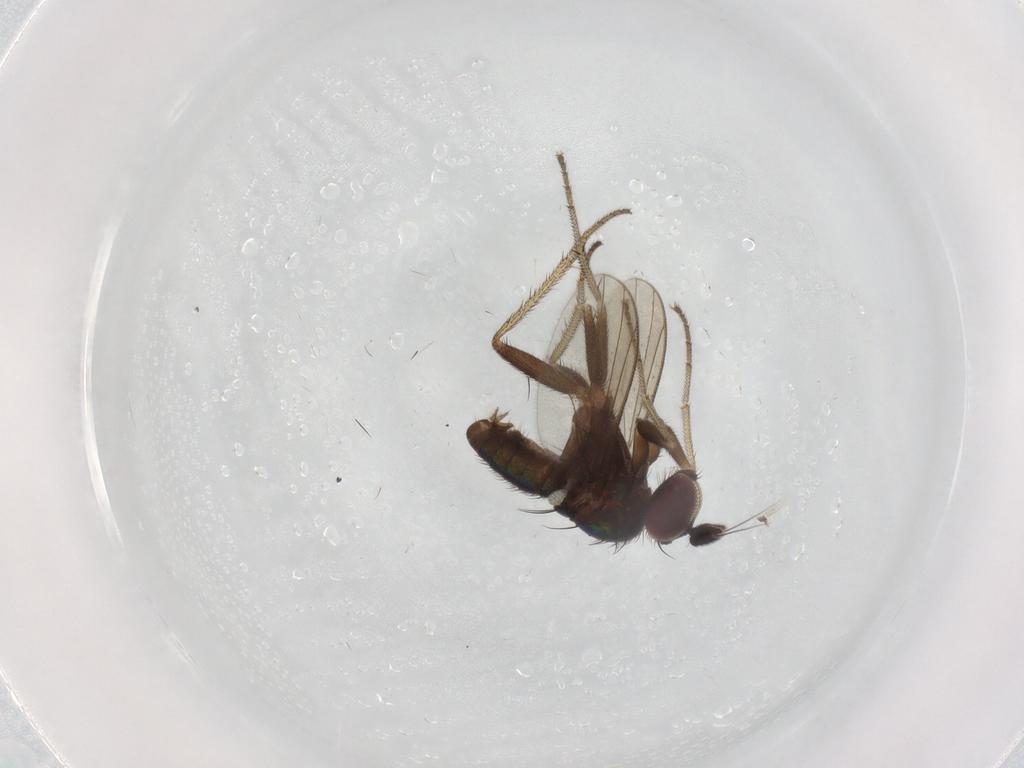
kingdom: Animalia
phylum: Arthropoda
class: Insecta
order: Diptera
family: Dolichopodidae
